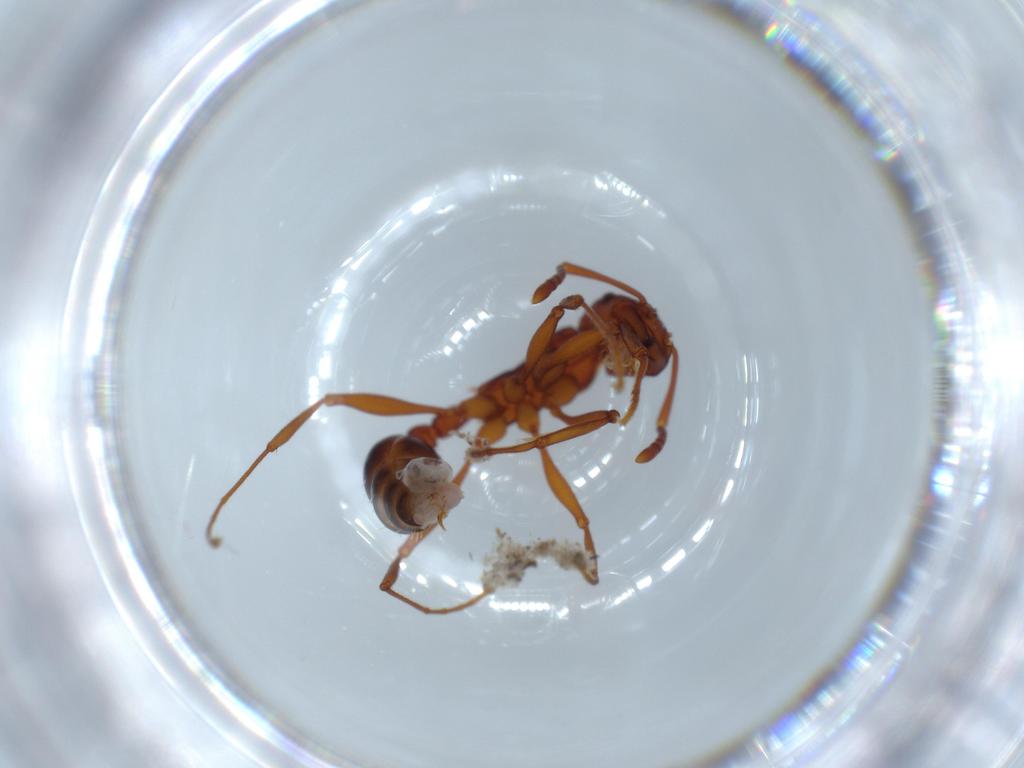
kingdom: Animalia
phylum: Arthropoda
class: Insecta
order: Hymenoptera
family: Formicidae
